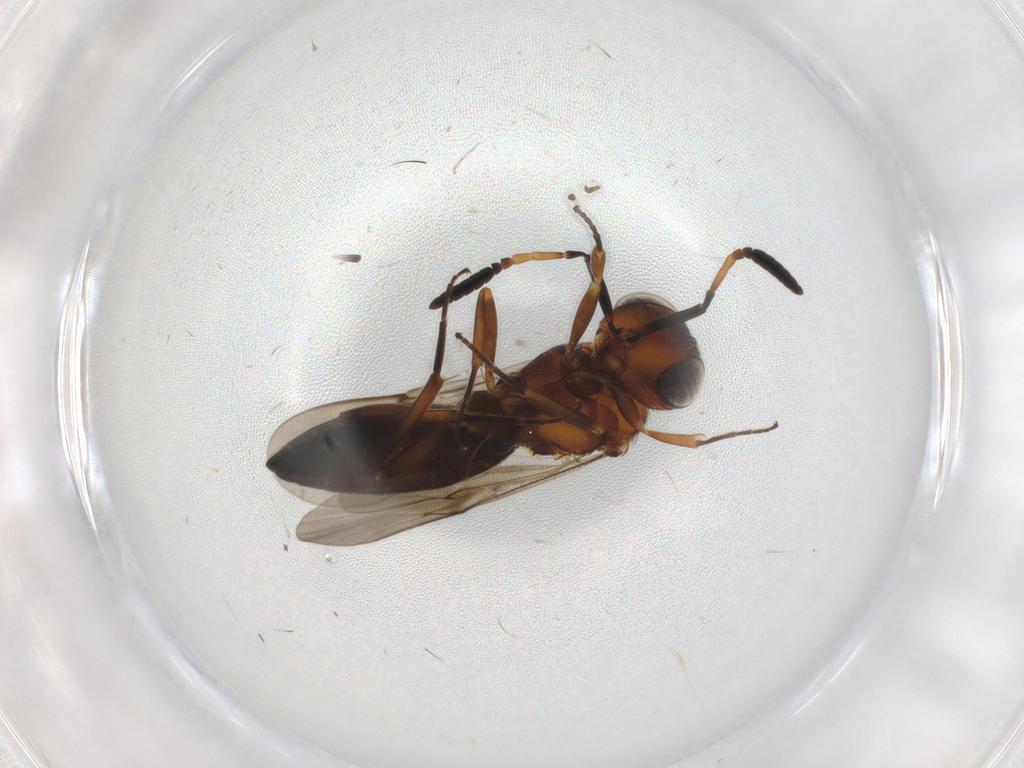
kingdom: Animalia
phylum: Arthropoda
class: Insecta
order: Hymenoptera
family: Scelionidae
